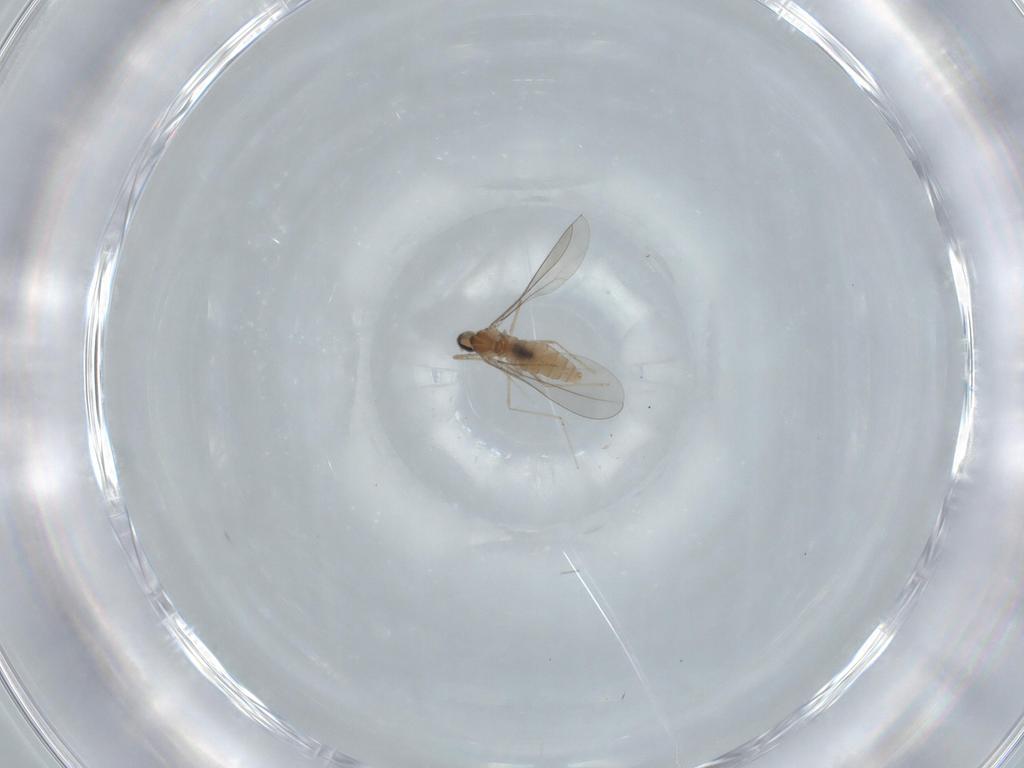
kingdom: Animalia
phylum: Arthropoda
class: Insecta
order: Diptera
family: Cecidomyiidae
